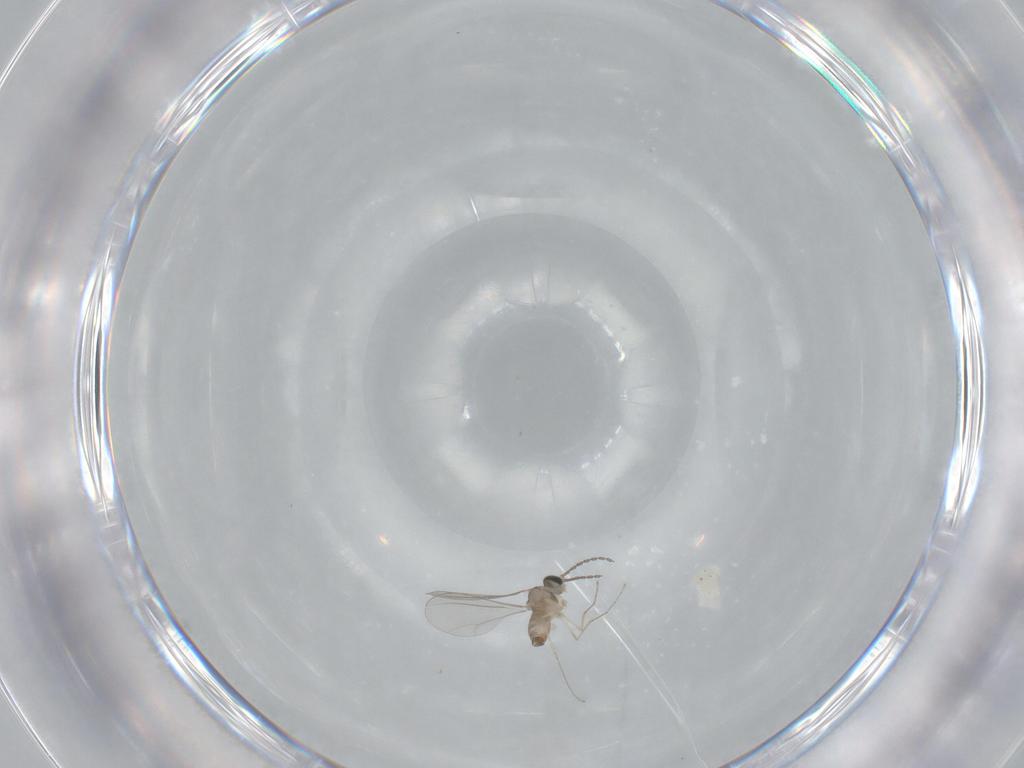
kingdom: Animalia
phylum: Arthropoda
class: Insecta
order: Diptera
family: Cecidomyiidae
